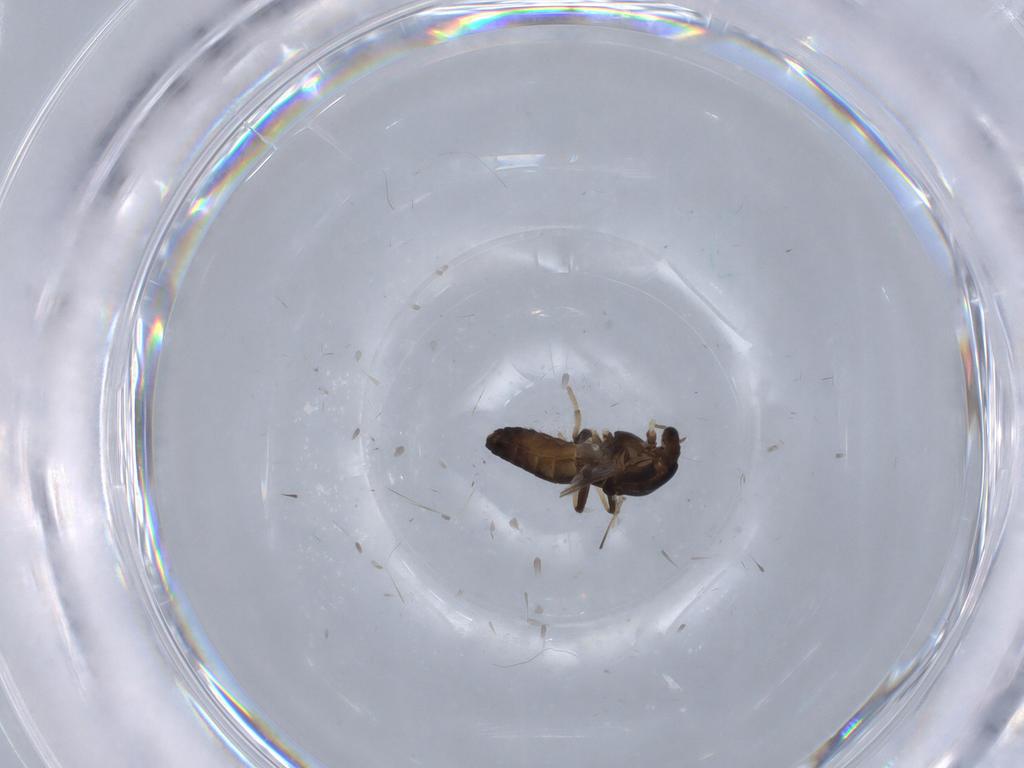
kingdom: Animalia
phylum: Arthropoda
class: Insecta
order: Diptera
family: Chironomidae
